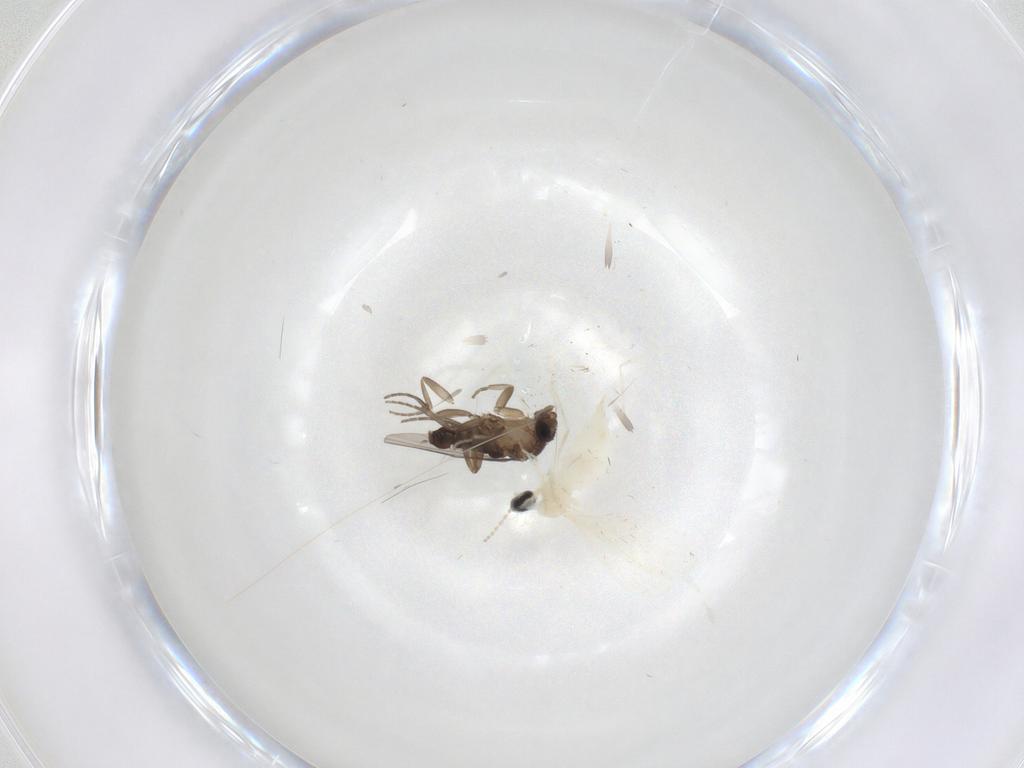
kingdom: Animalia
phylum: Arthropoda
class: Insecta
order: Diptera
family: Phoridae
